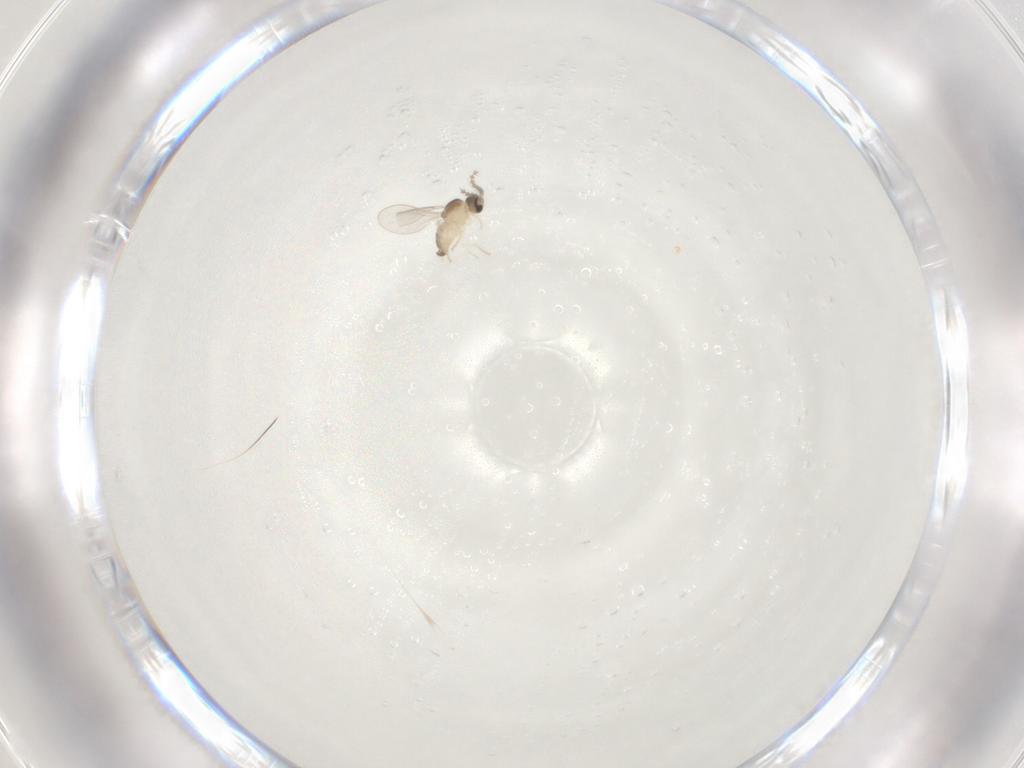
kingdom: Animalia
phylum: Arthropoda
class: Insecta
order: Diptera
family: Cecidomyiidae
